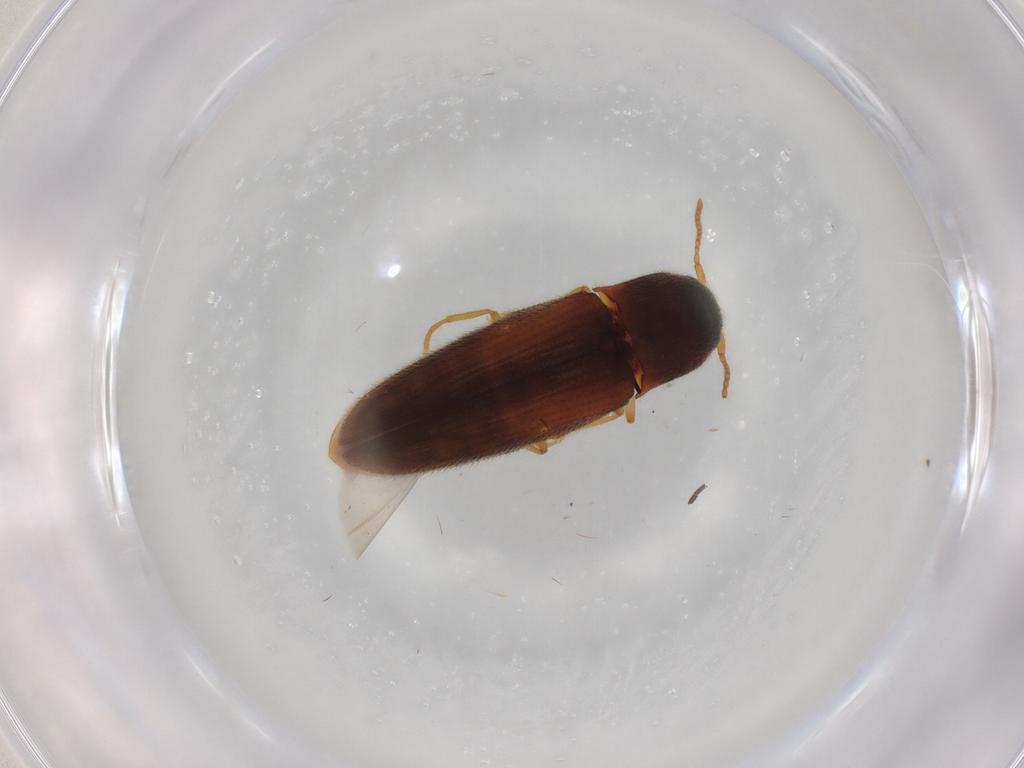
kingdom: Animalia
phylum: Arthropoda
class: Insecta
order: Coleoptera
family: Elateridae
